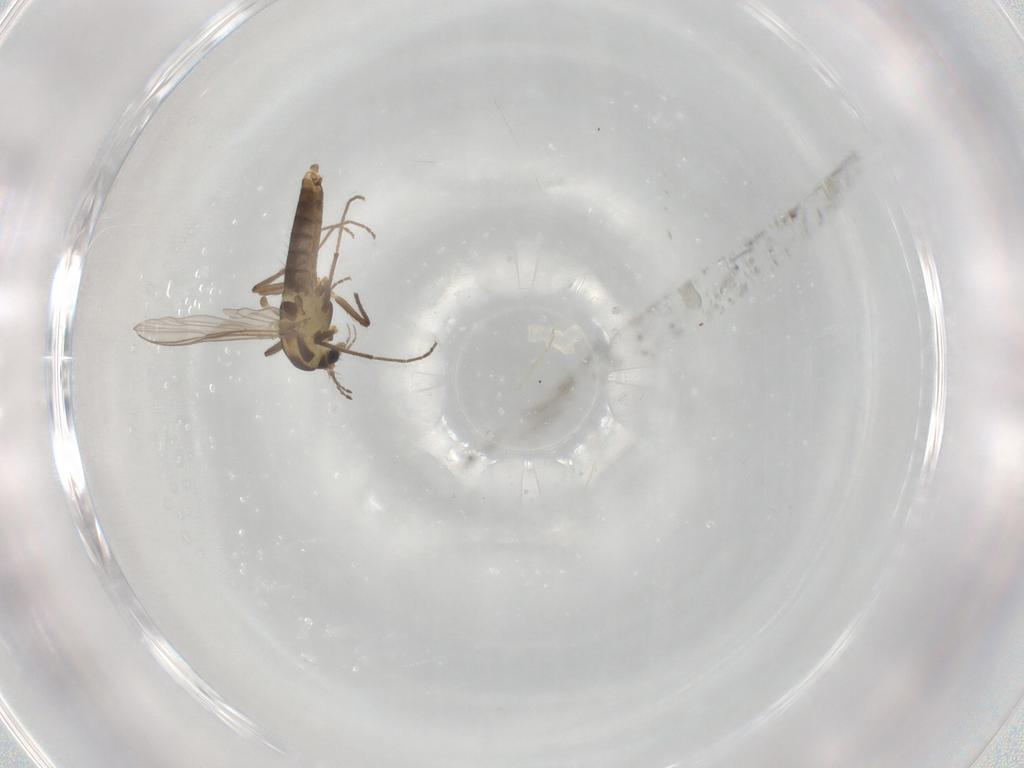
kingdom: Animalia
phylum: Arthropoda
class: Insecta
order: Diptera
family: Chironomidae
